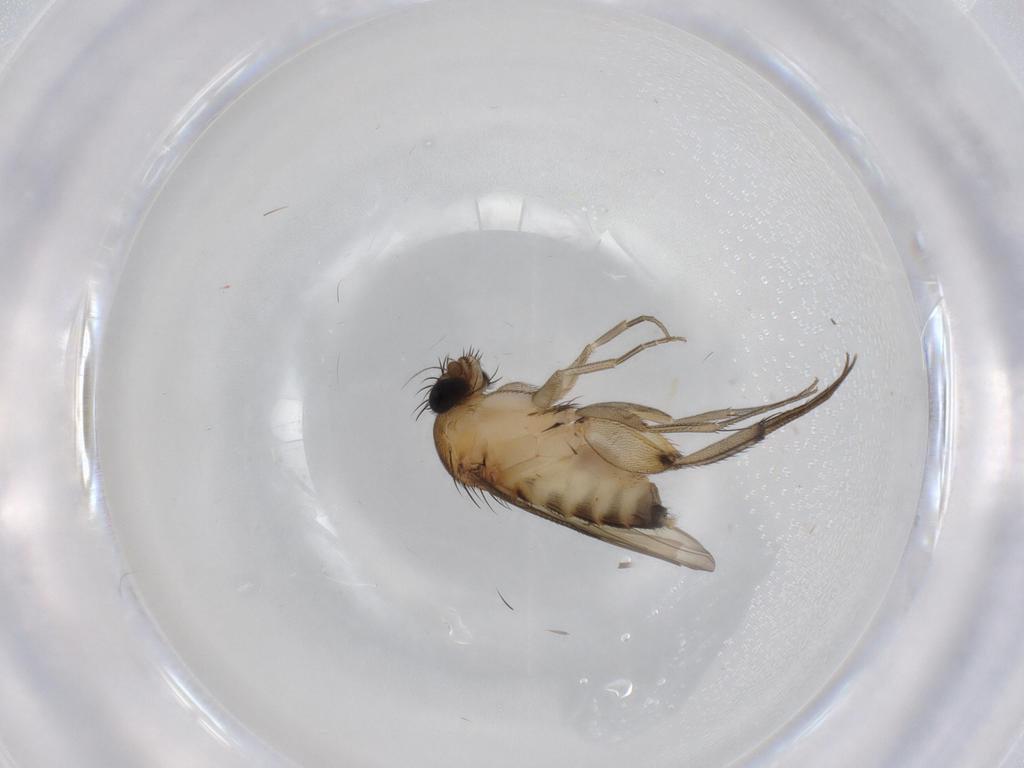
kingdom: Animalia
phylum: Arthropoda
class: Insecta
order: Diptera
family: Phoridae
